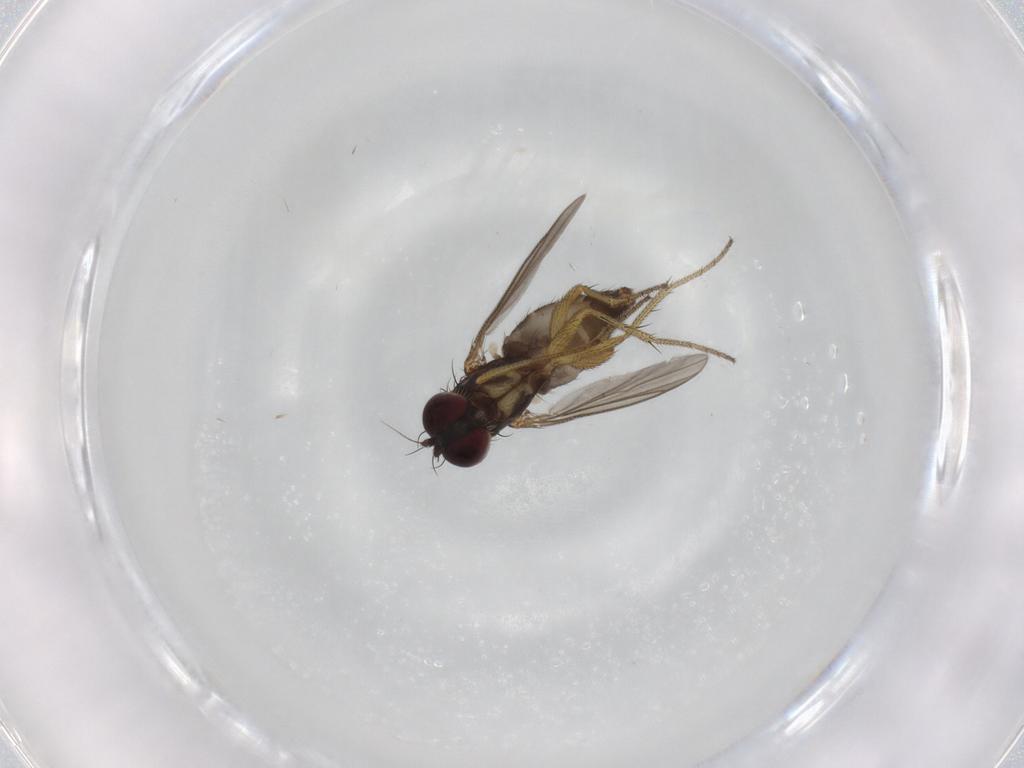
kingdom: Animalia
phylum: Arthropoda
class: Insecta
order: Diptera
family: Dolichopodidae
